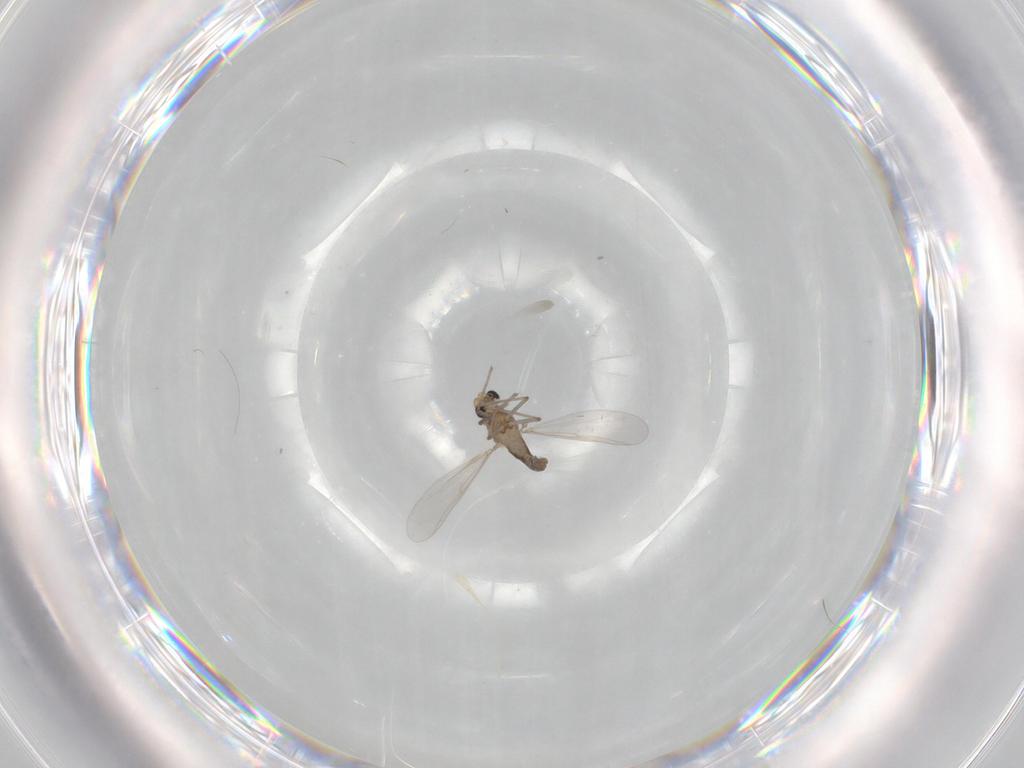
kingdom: Animalia
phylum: Arthropoda
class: Insecta
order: Diptera
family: Chironomidae
